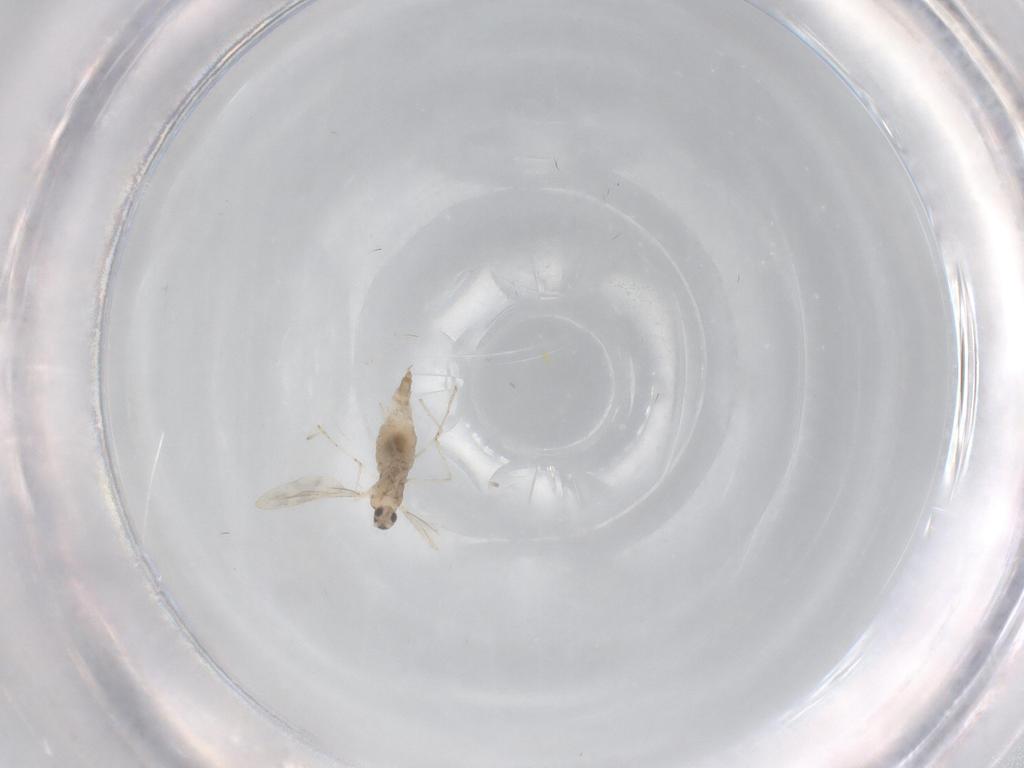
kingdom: Animalia
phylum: Arthropoda
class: Insecta
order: Diptera
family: Cecidomyiidae
